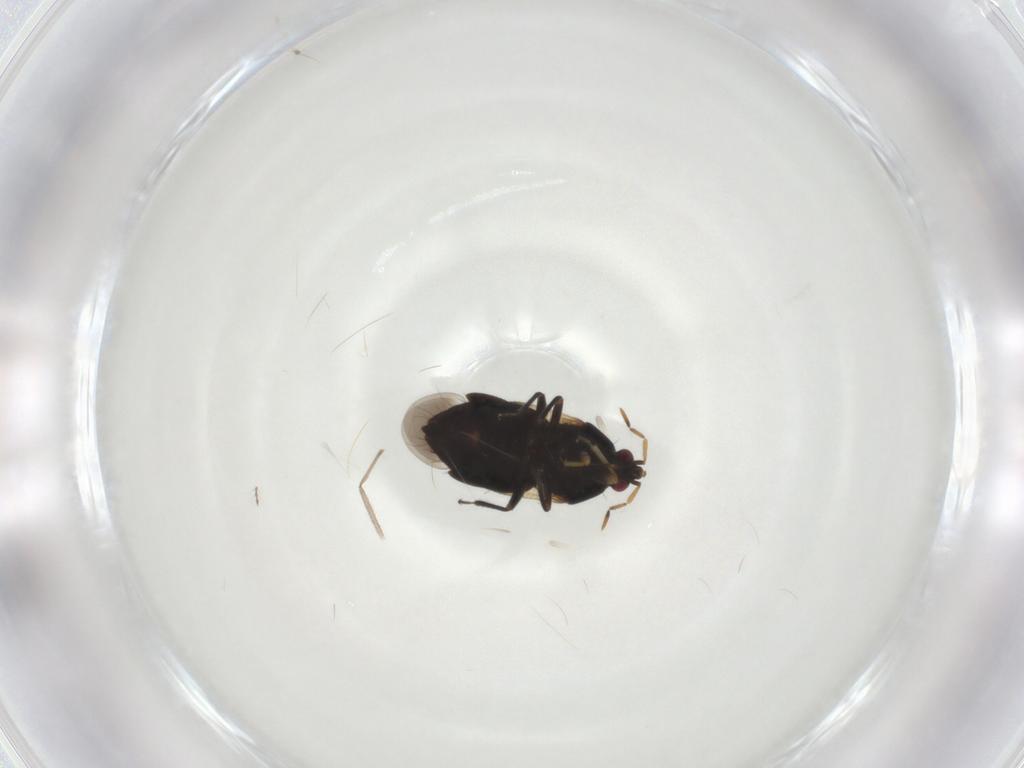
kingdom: Animalia
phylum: Arthropoda
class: Insecta
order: Hemiptera
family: Anthocoridae
